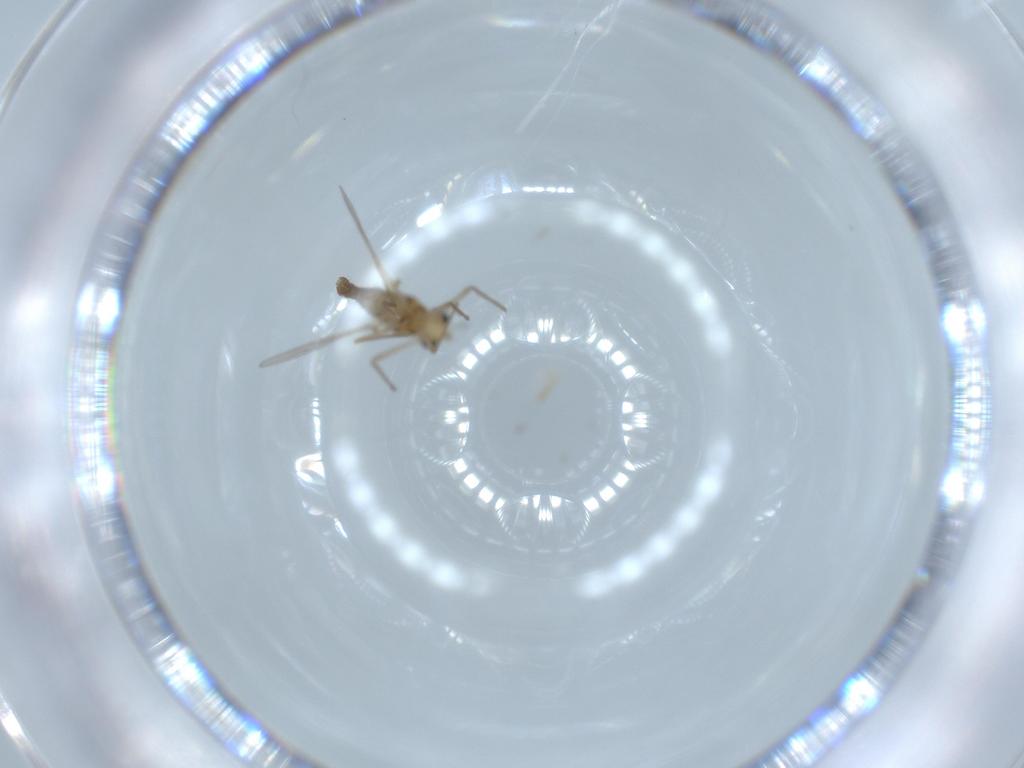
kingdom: Animalia
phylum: Arthropoda
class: Insecta
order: Diptera
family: Chironomidae
